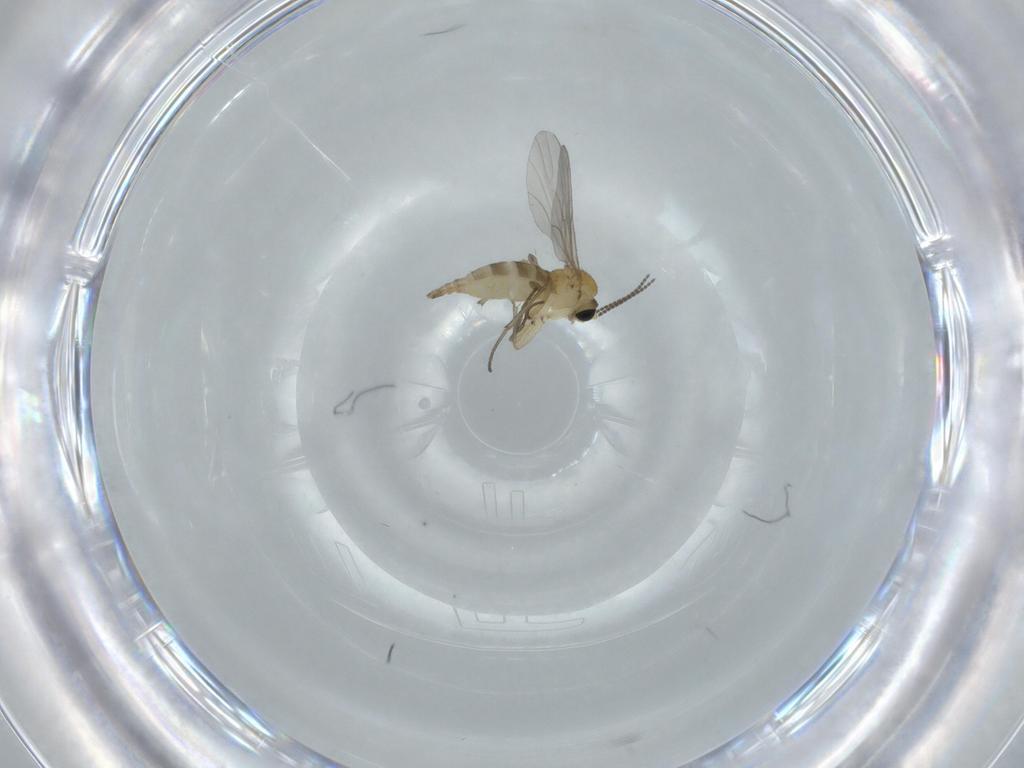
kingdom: Animalia
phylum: Arthropoda
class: Insecta
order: Diptera
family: Sciaridae
